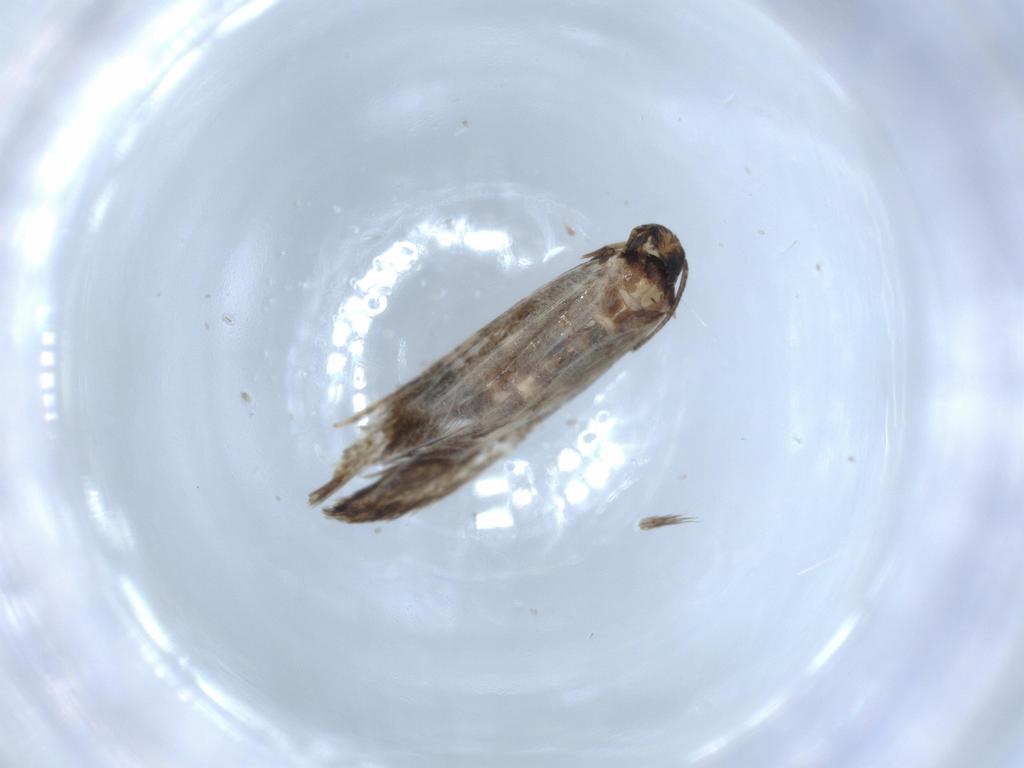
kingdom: Animalia
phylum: Arthropoda
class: Insecta
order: Lepidoptera
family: Tineidae
